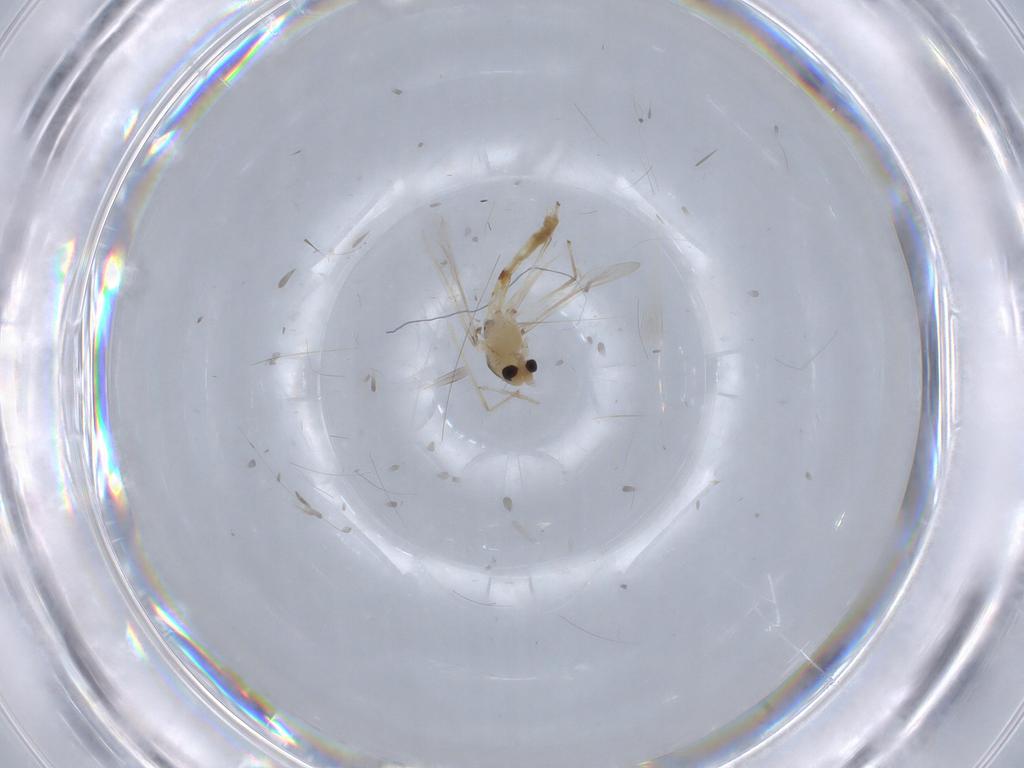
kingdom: Animalia
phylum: Arthropoda
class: Insecta
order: Diptera
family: Chironomidae
